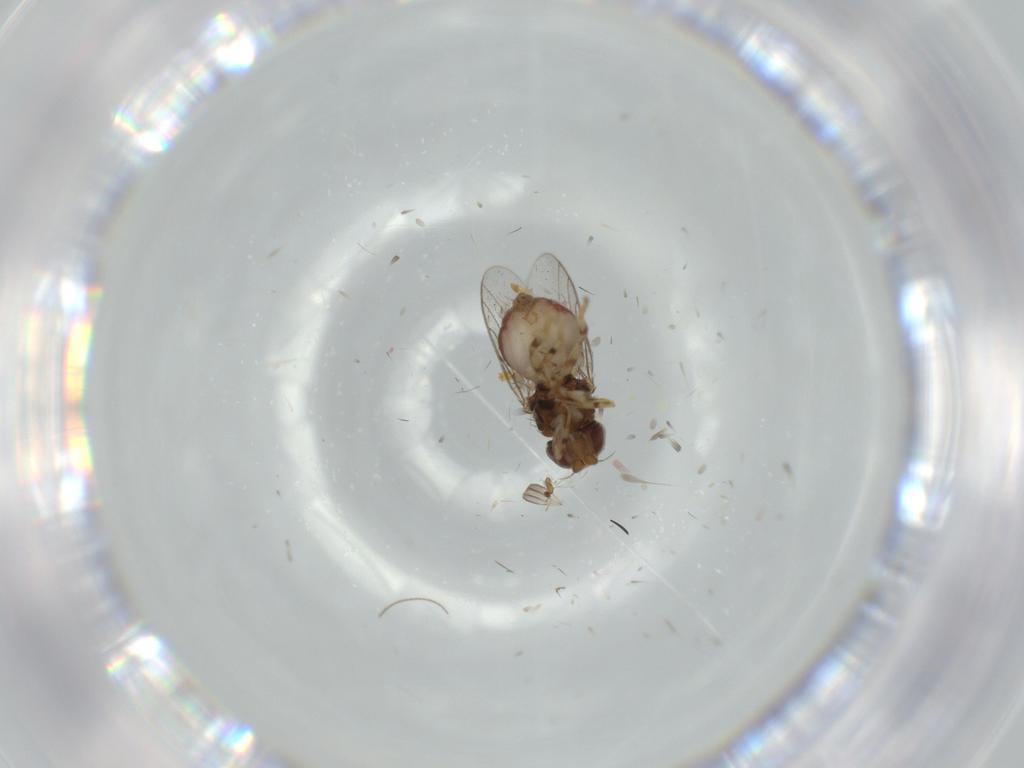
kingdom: Animalia
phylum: Arthropoda
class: Insecta
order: Diptera
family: Chloropidae
